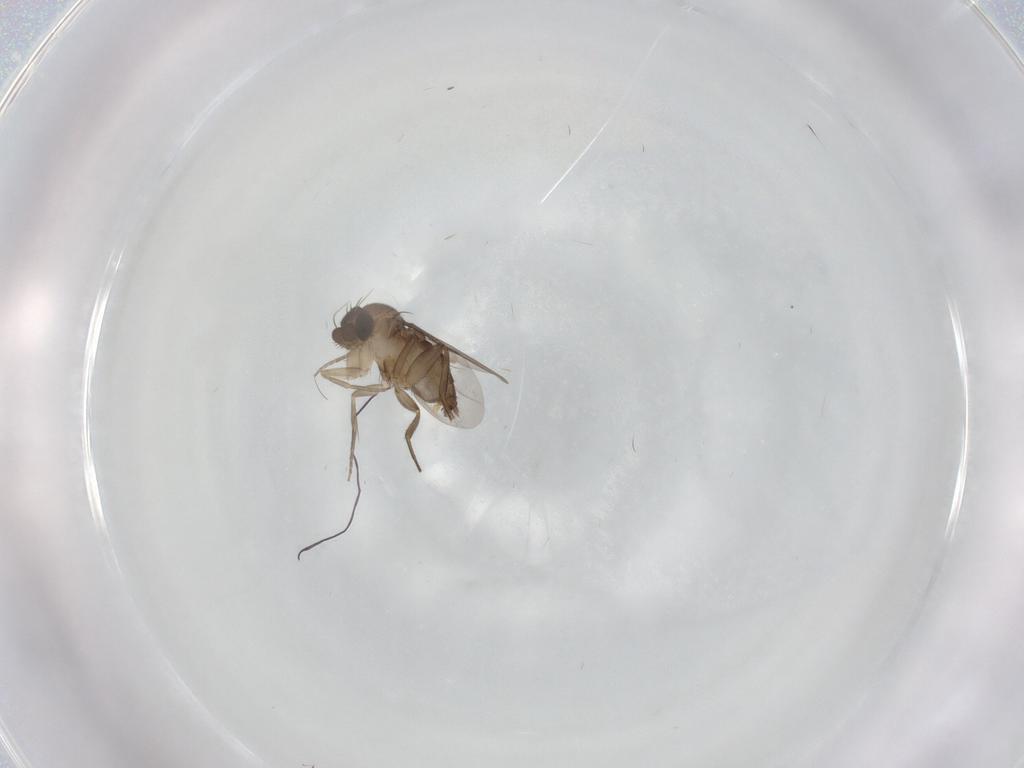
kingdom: Animalia
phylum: Arthropoda
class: Insecta
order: Diptera
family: Phoridae
